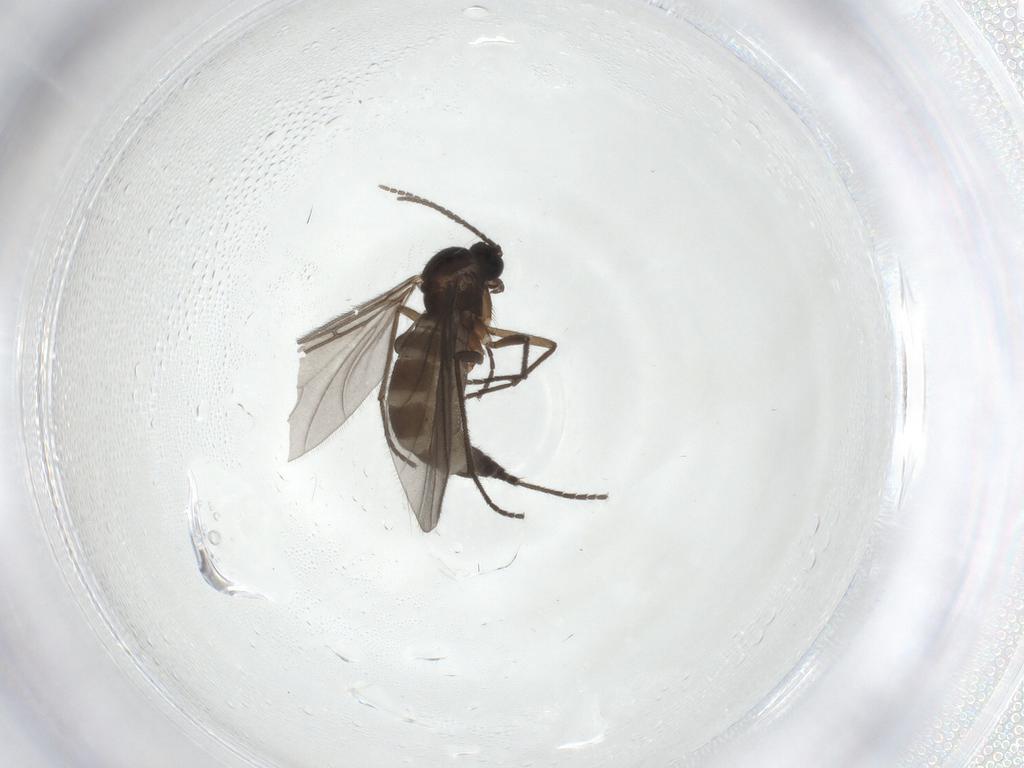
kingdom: Animalia
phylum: Arthropoda
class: Insecta
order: Diptera
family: Sciaridae
